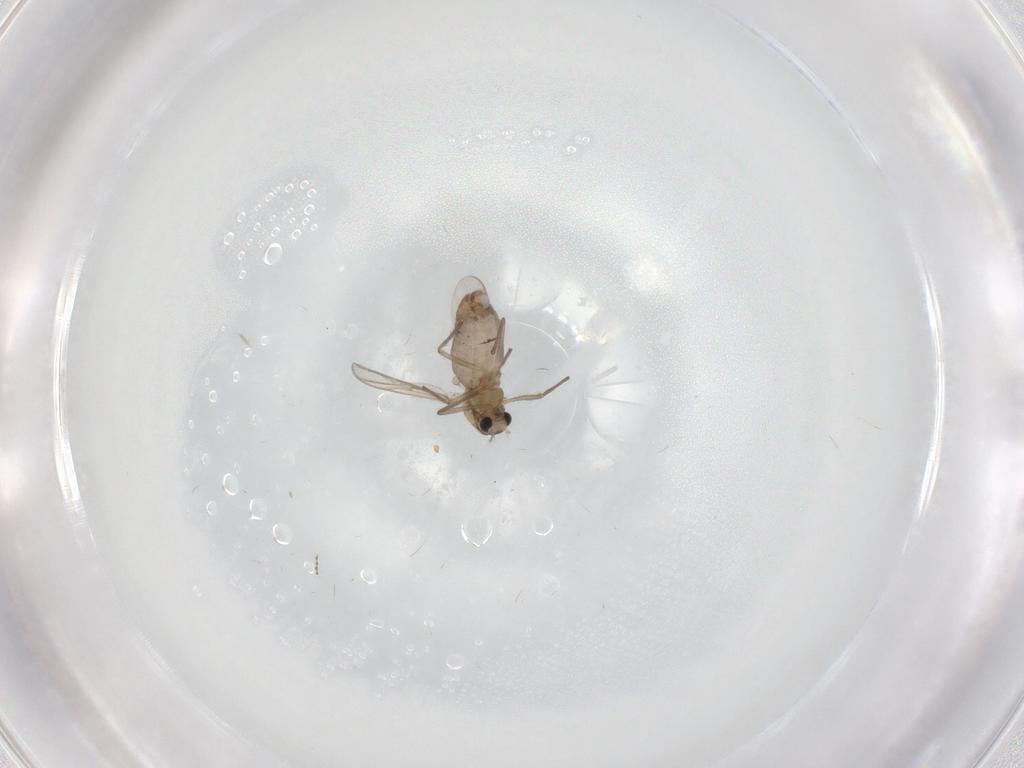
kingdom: Animalia
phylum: Arthropoda
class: Insecta
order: Diptera
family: Chironomidae
